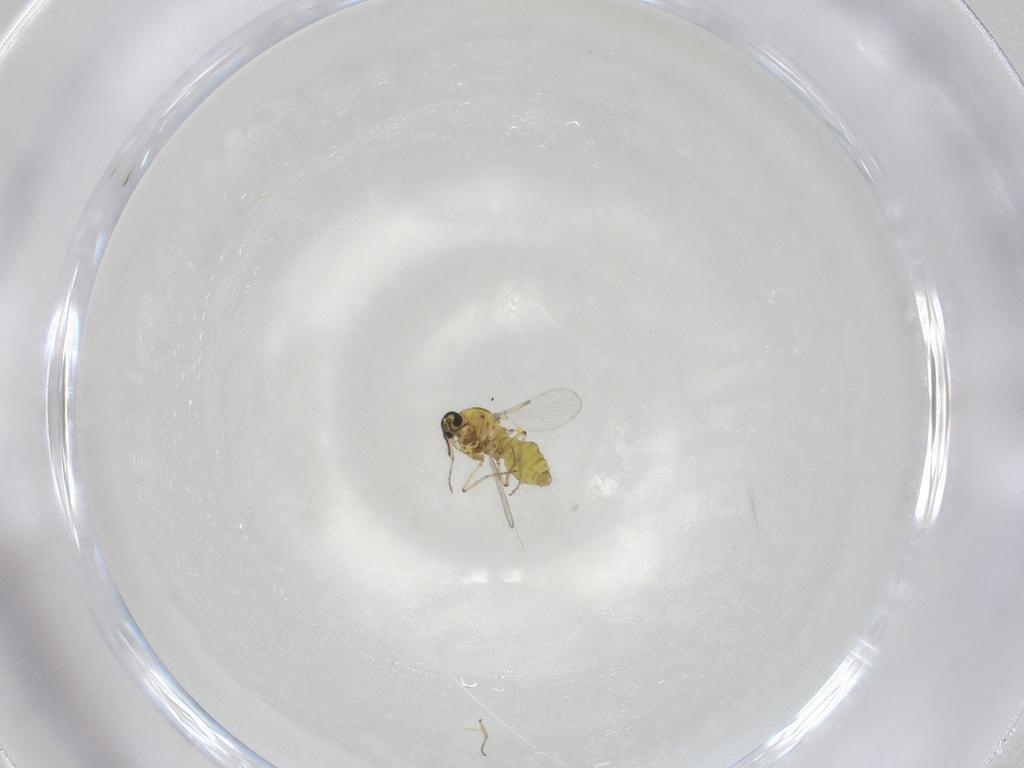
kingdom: Animalia
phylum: Arthropoda
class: Insecta
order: Diptera
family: Ceratopogonidae
